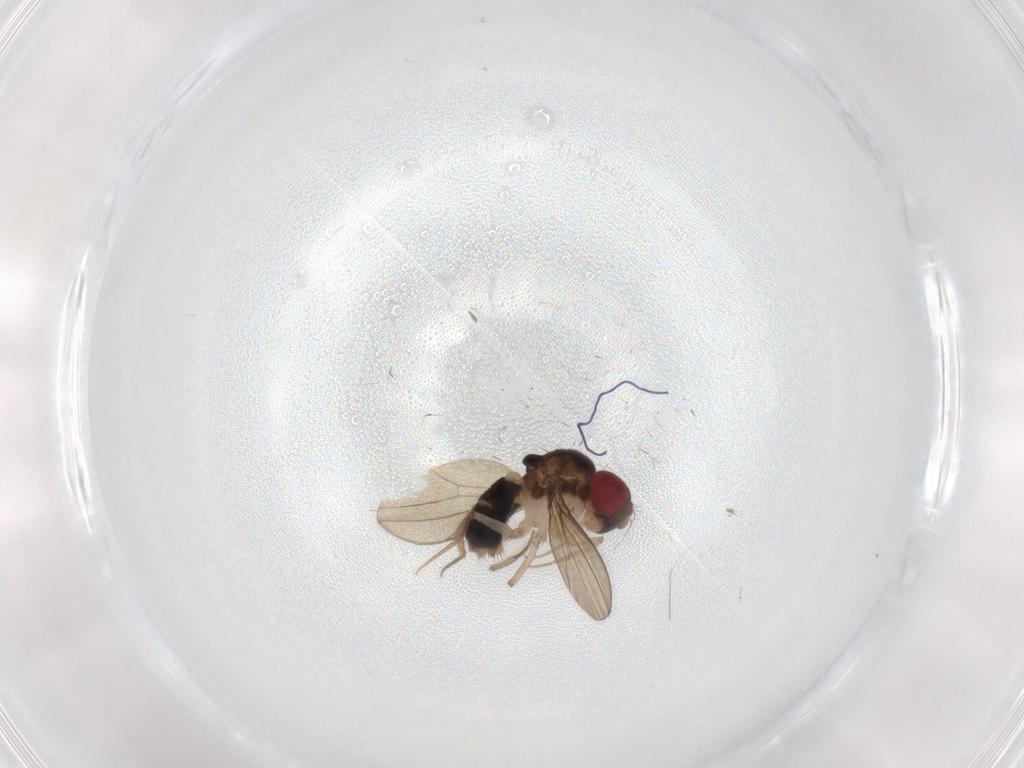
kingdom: Animalia
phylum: Arthropoda
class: Insecta
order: Diptera
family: Drosophilidae
